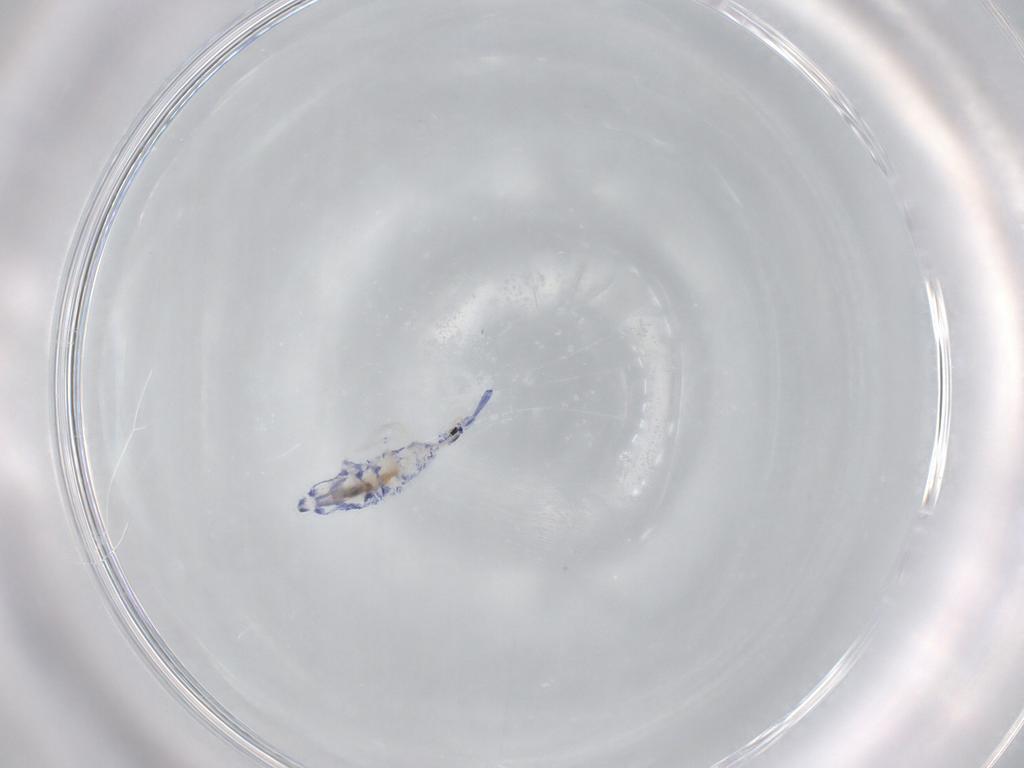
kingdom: Animalia
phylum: Arthropoda
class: Collembola
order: Entomobryomorpha
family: Entomobryidae
